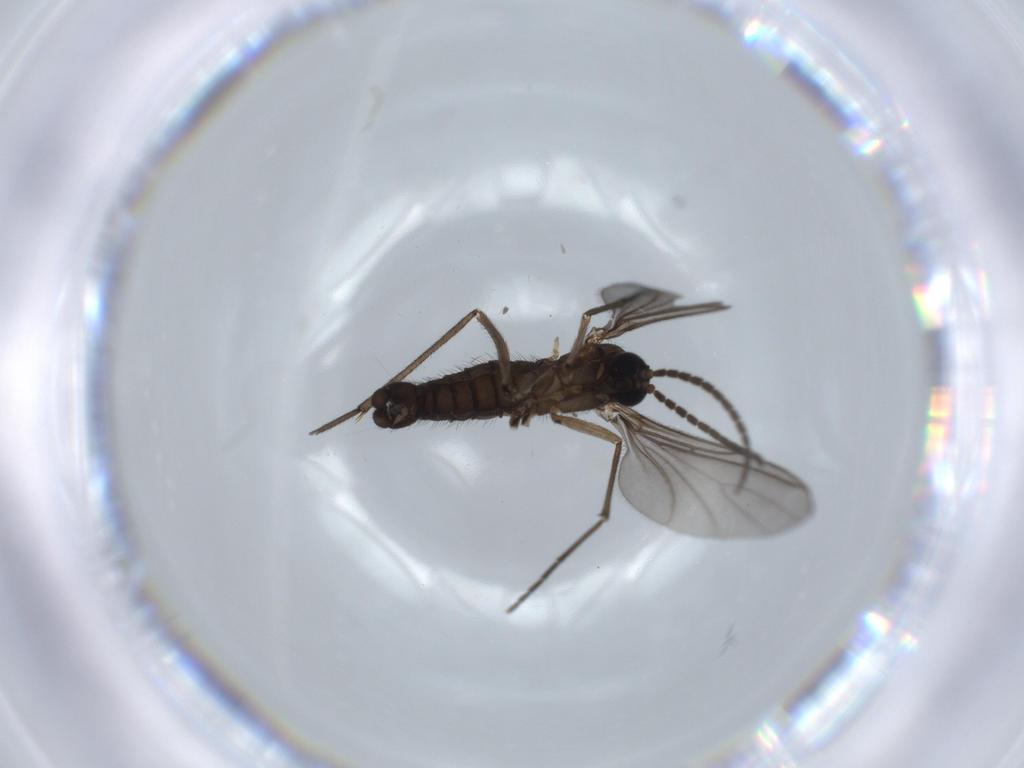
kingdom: Animalia
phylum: Arthropoda
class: Insecta
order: Diptera
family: Sciaridae
